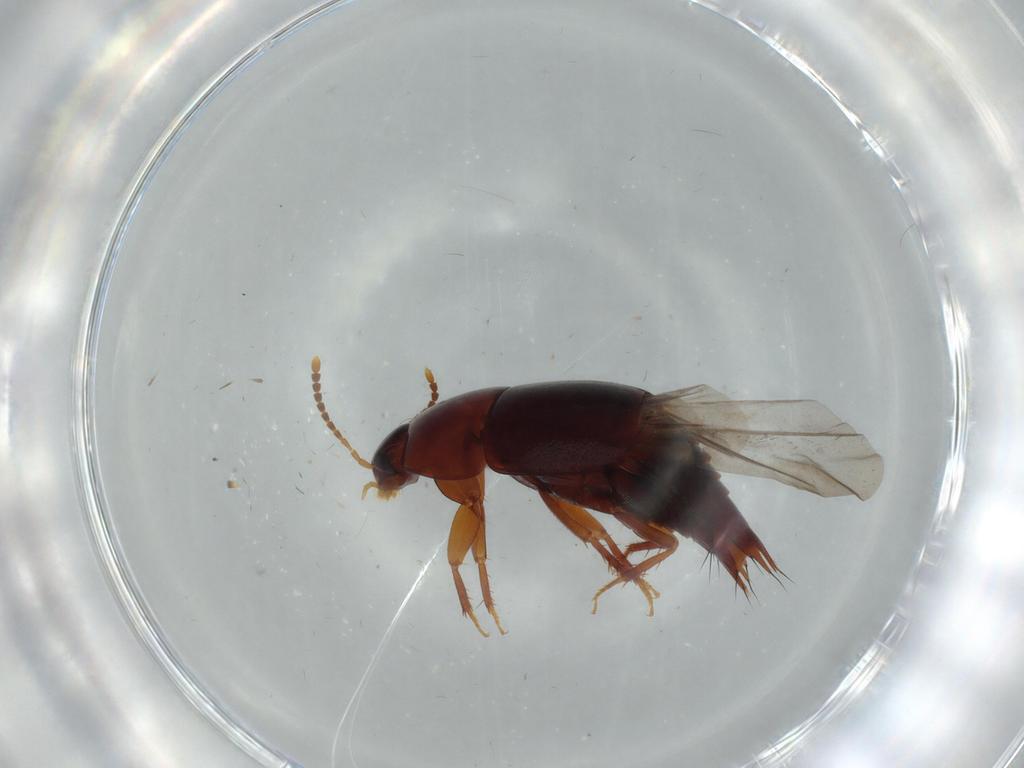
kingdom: Animalia
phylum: Arthropoda
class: Insecta
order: Coleoptera
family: Staphylinidae
